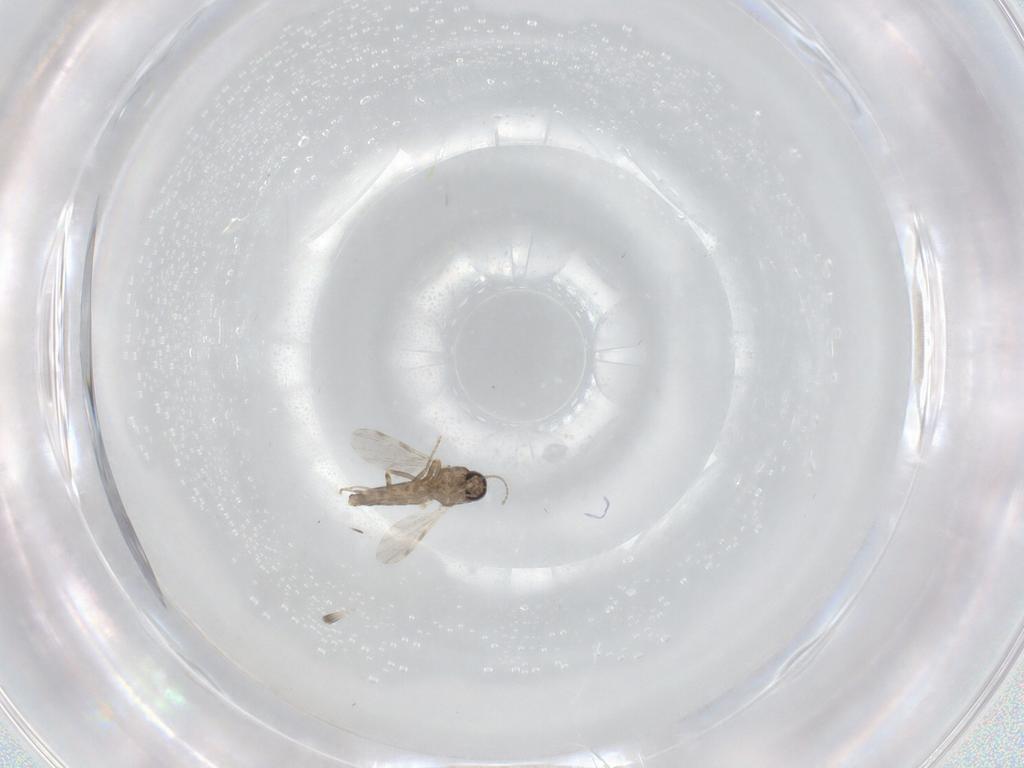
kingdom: Animalia
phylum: Arthropoda
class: Insecta
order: Diptera
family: Ceratopogonidae
